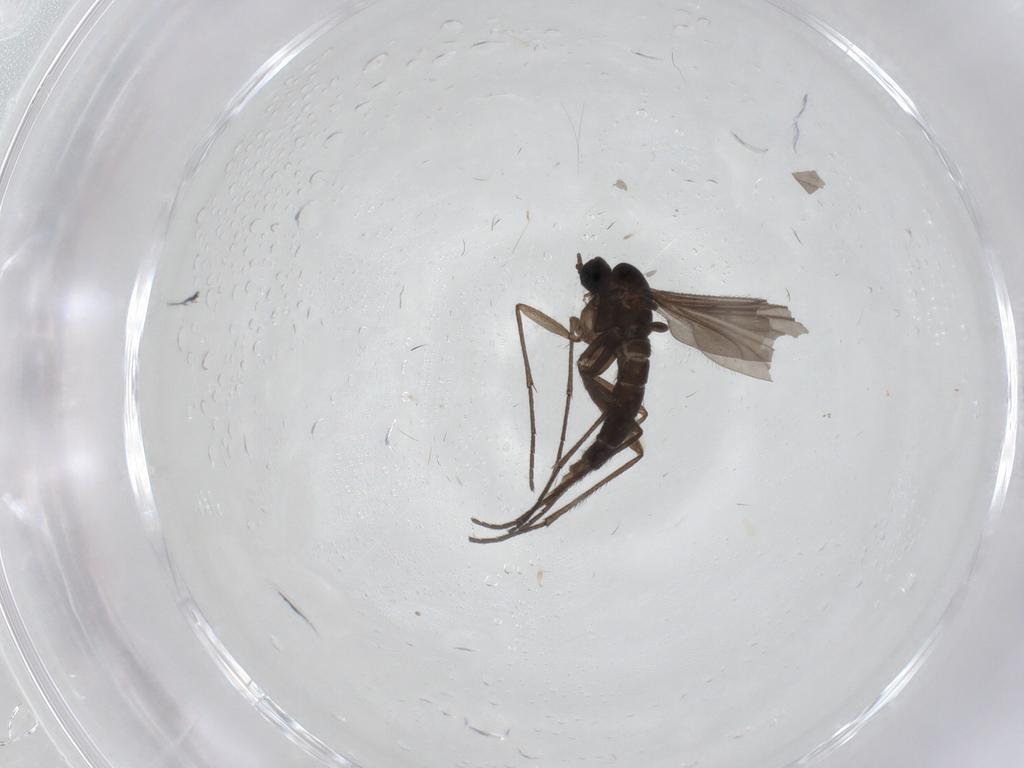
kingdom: Animalia
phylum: Arthropoda
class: Insecta
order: Diptera
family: Sciaridae
